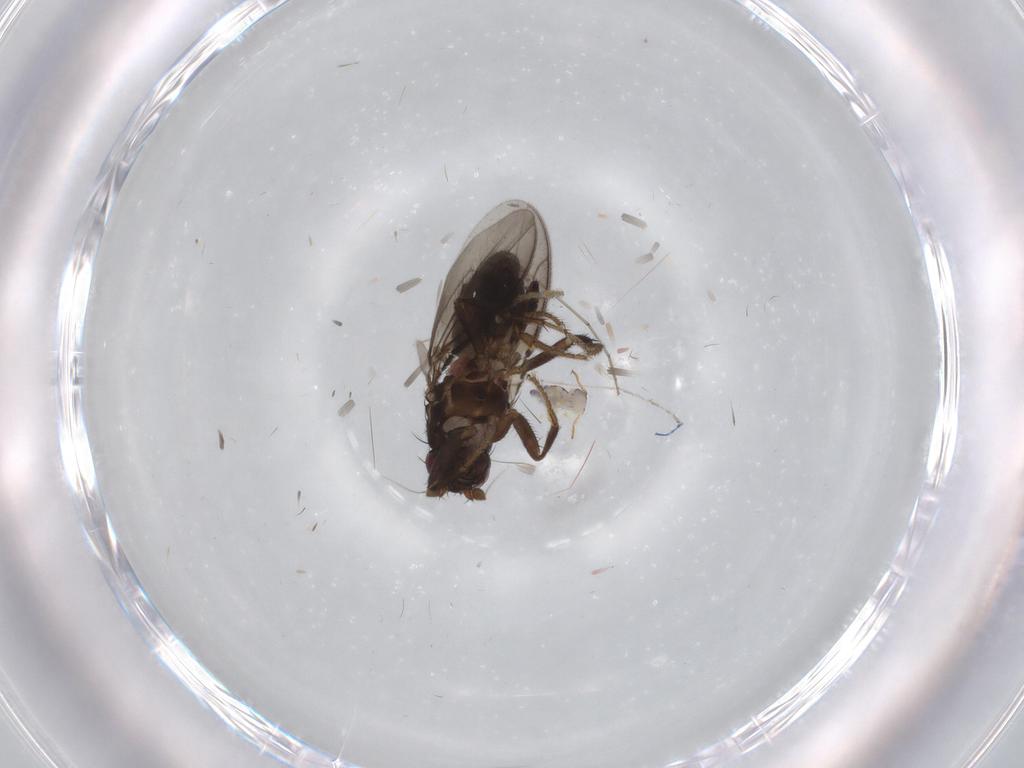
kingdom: Animalia
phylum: Arthropoda
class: Insecta
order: Diptera
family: Sphaeroceridae
